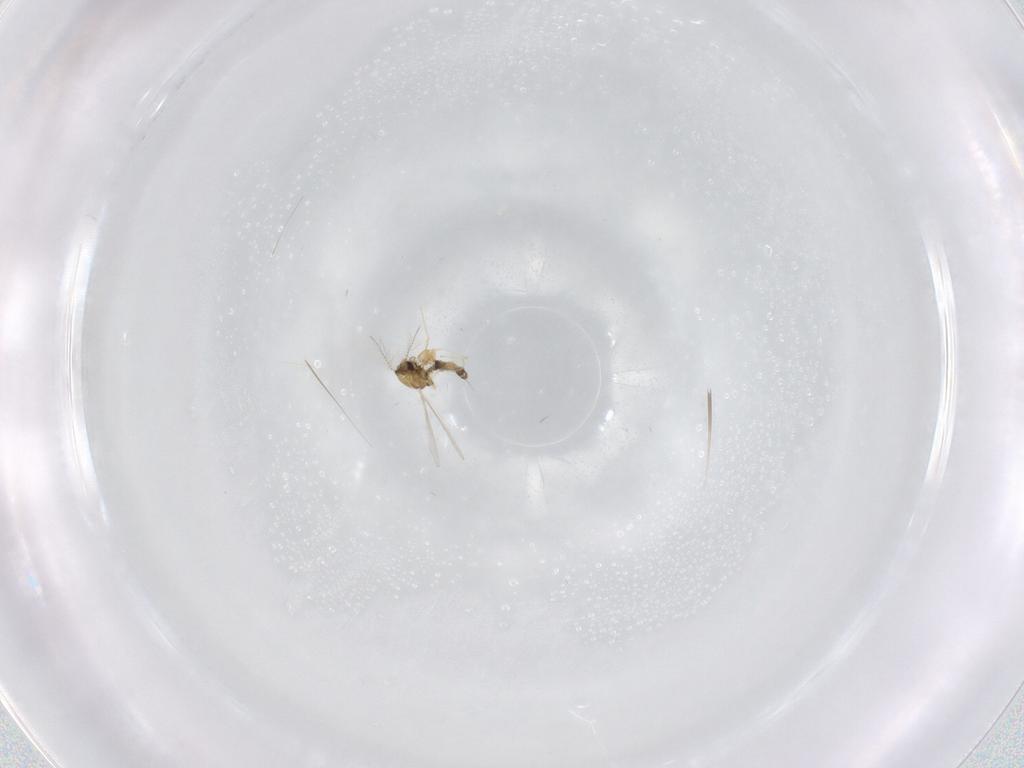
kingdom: Animalia
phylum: Arthropoda
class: Insecta
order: Diptera
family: Chironomidae
